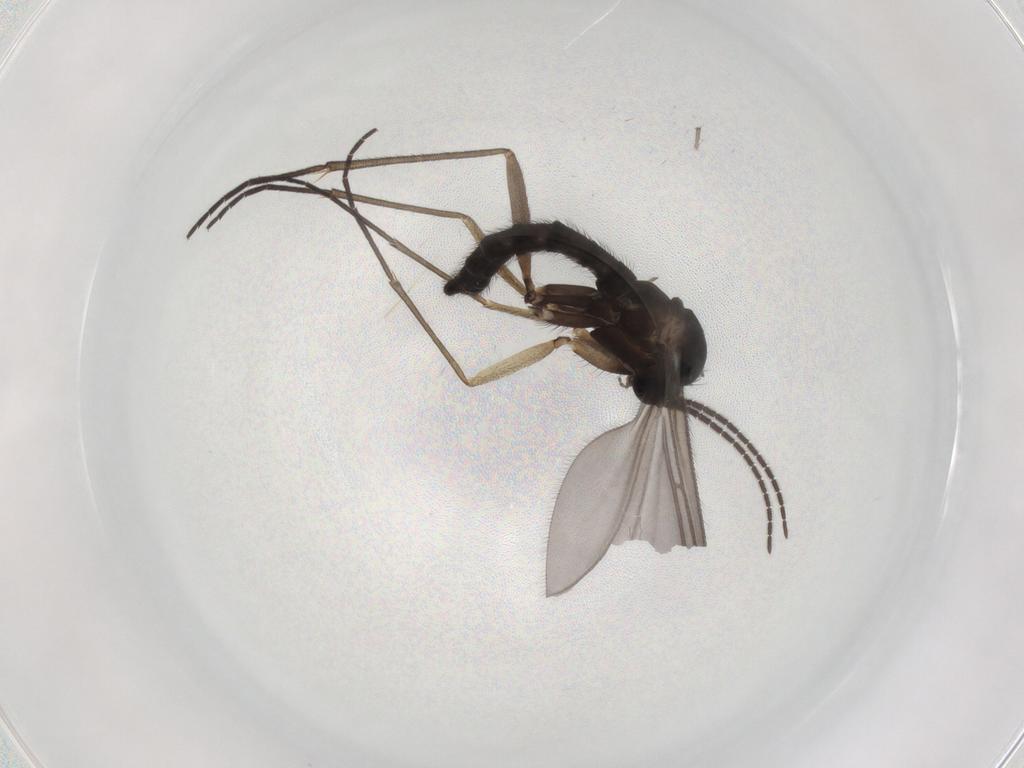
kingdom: Animalia
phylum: Arthropoda
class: Insecta
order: Diptera
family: Sciaridae
